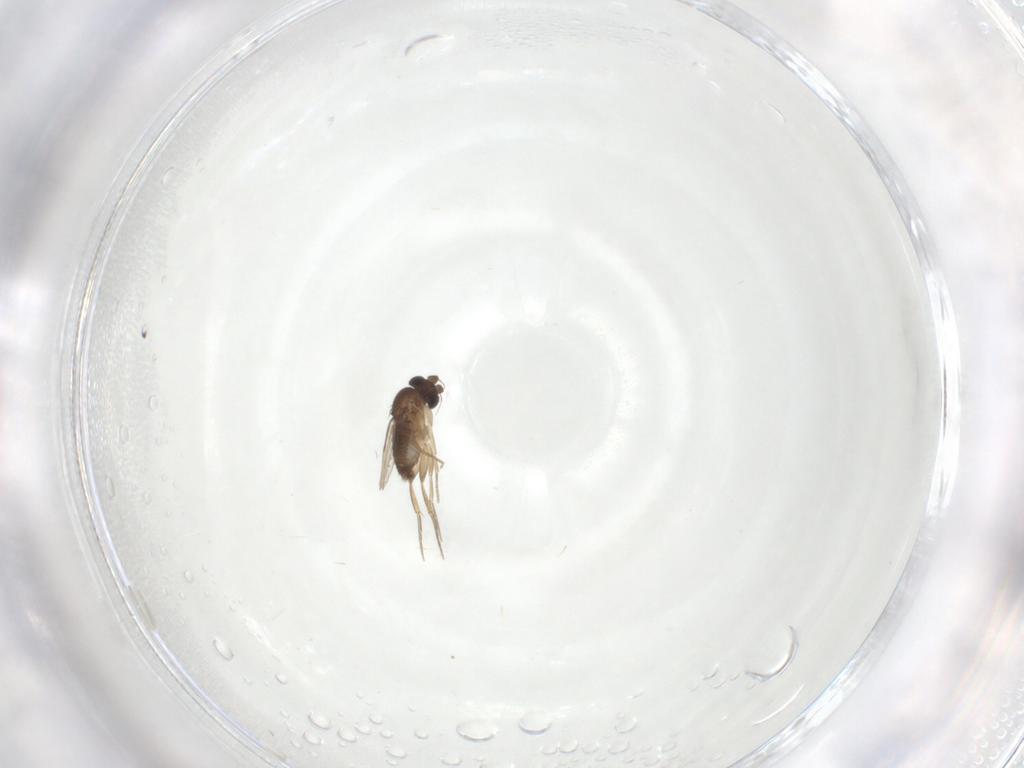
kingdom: Animalia
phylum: Arthropoda
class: Insecta
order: Diptera
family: Phoridae
